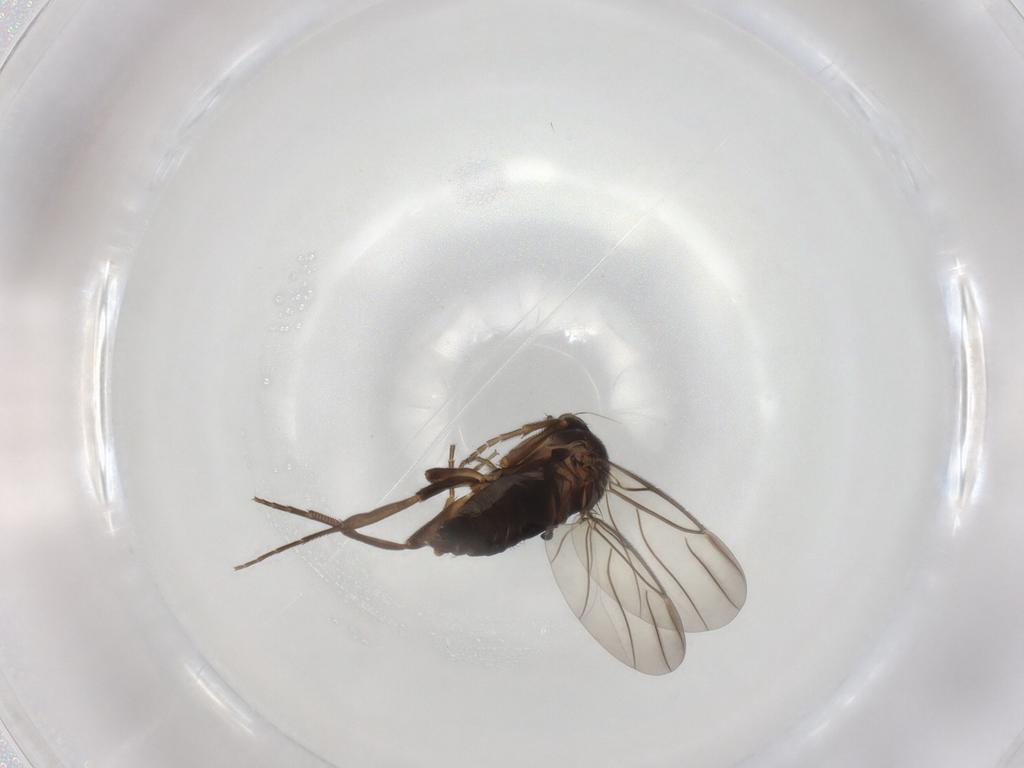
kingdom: Animalia
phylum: Arthropoda
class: Insecta
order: Diptera
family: Phoridae
